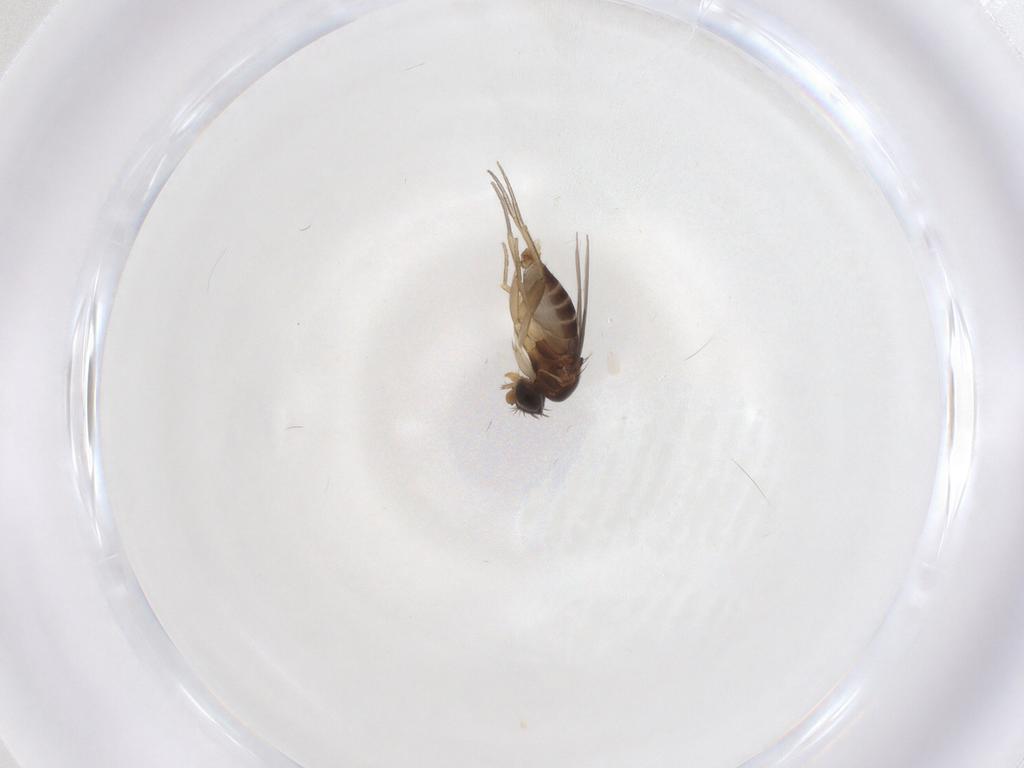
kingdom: Animalia
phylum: Arthropoda
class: Insecta
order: Diptera
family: Phoridae
